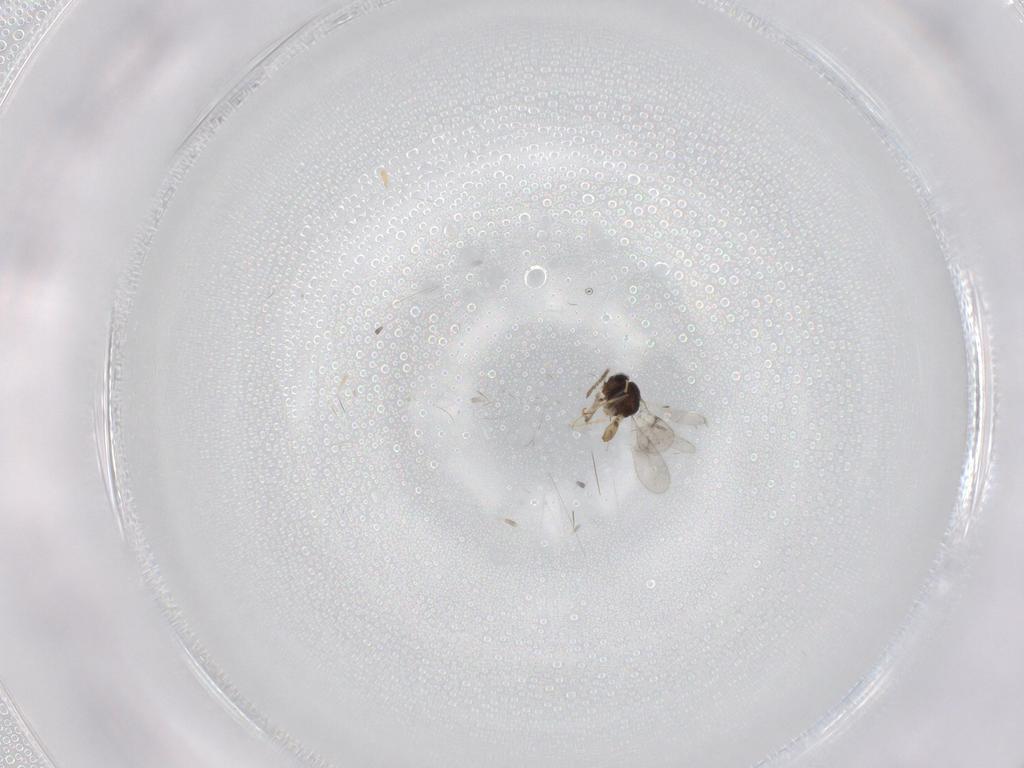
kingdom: Animalia
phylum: Arthropoda
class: Insecta
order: Hymenoptera
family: Scelionidae
